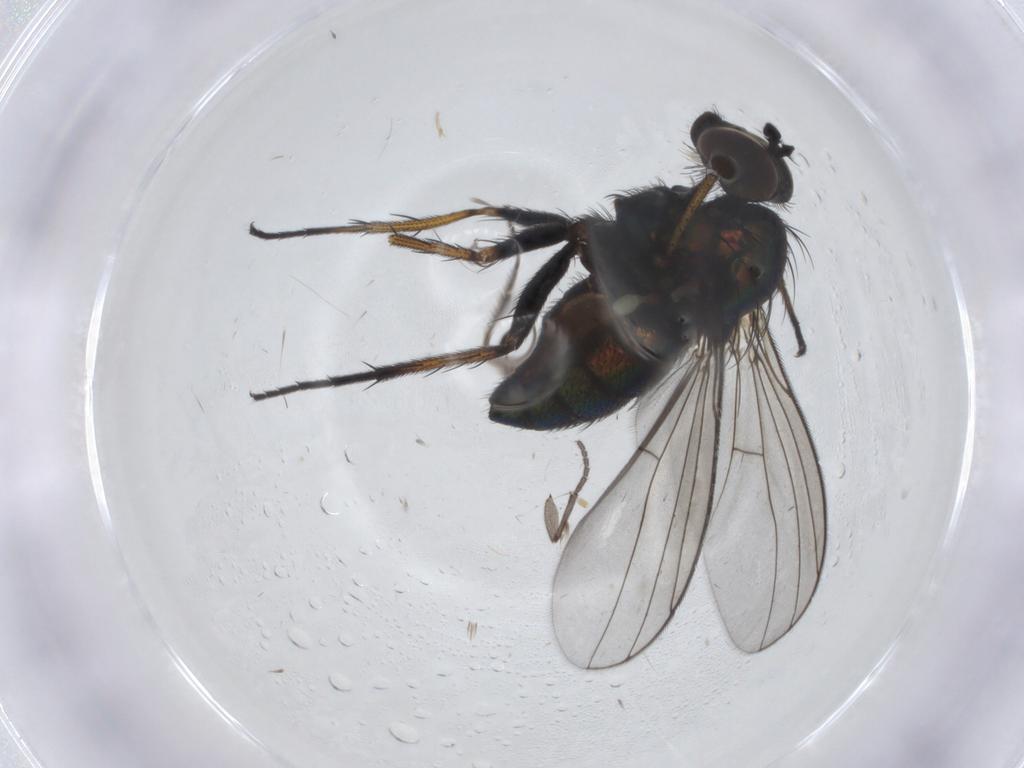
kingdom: Animalia
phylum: Arthropoda
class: Insecta
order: Diptera
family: Dolichopodidae
